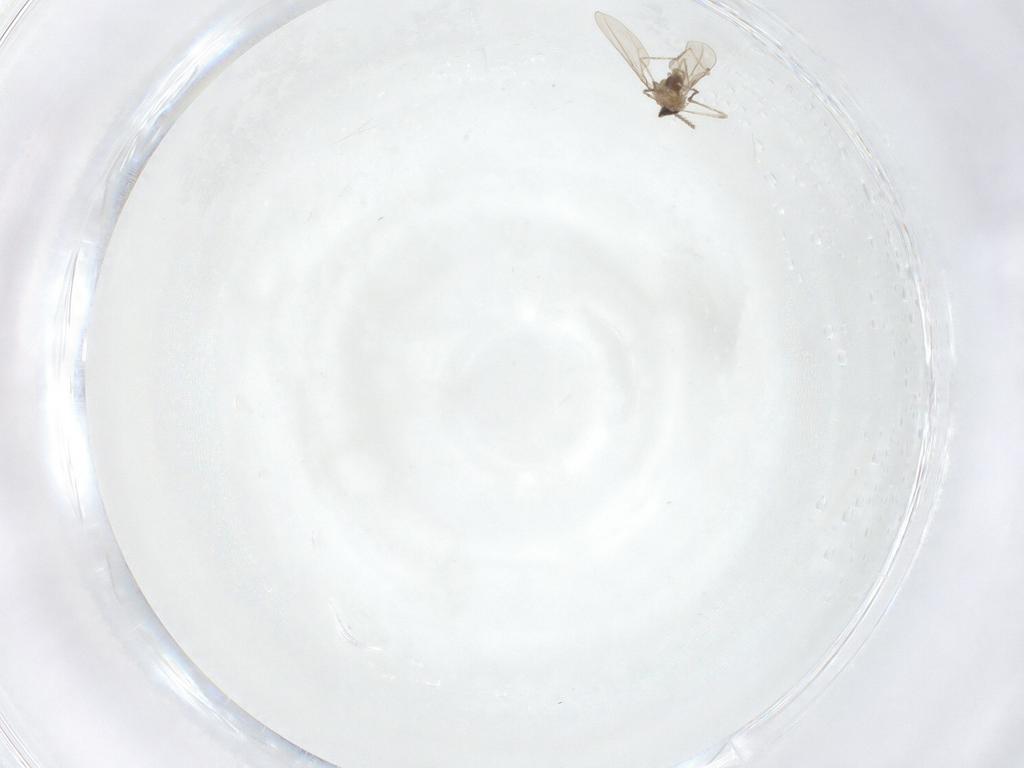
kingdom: Animalia
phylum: Arthropoda
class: Insecta
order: Diptera
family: Cecidomyiidae
